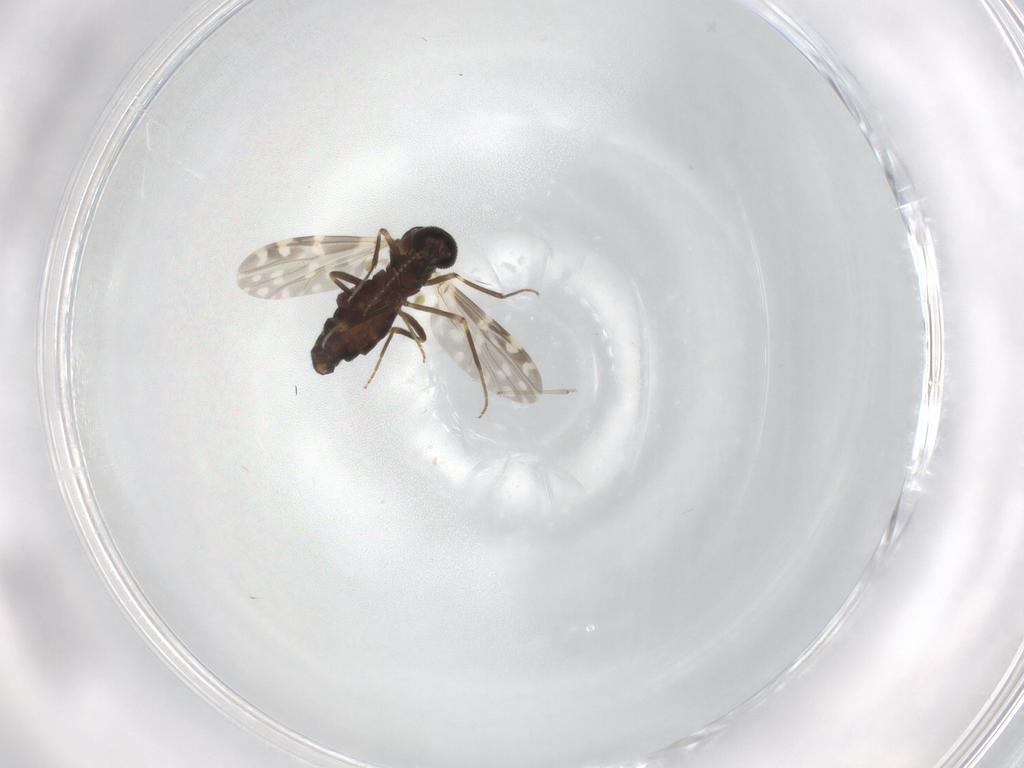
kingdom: Animalia
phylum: Arthropoda
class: Insecta
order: Diptera
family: Ceratopogonidae
